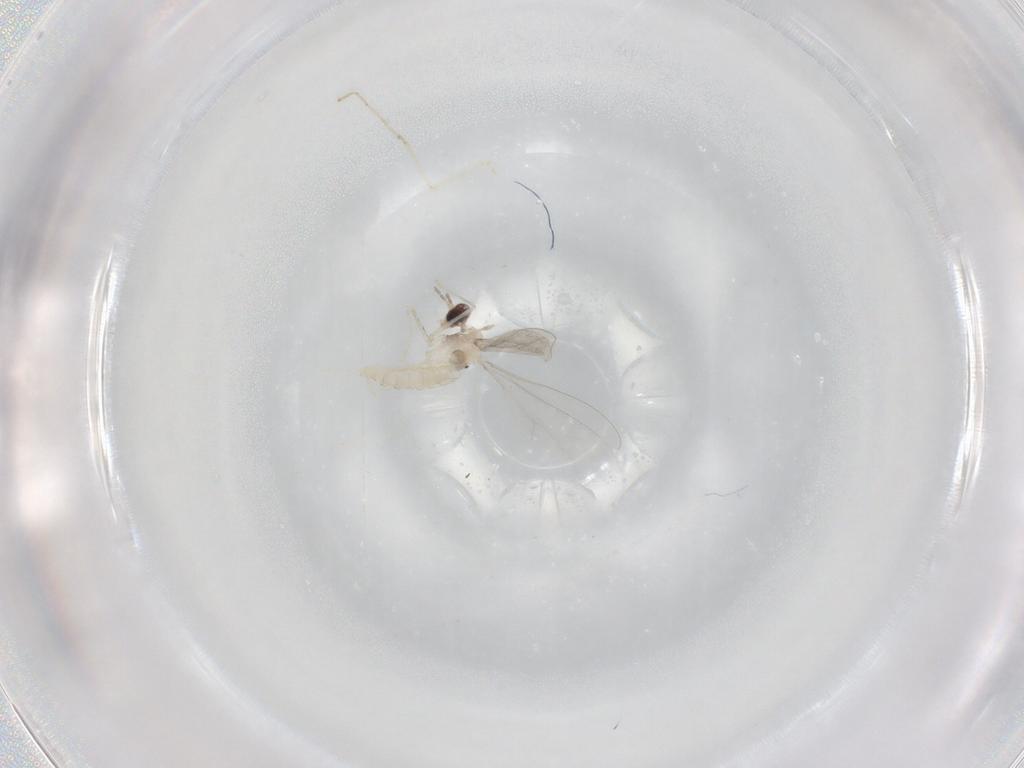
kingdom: Animalia
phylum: Arthropoda
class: Insecta
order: Diptera
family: Cecidomyiidae
